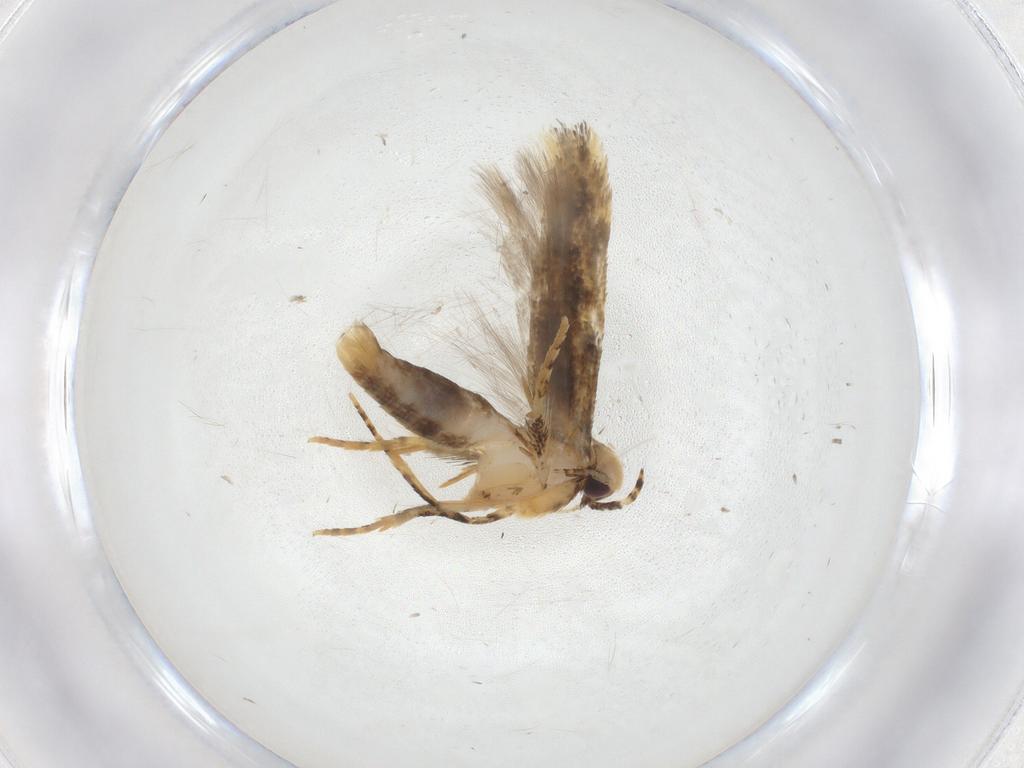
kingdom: Animalia
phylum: Arthropoda
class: Insecta
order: Lepidoptera
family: Gelechiidae
